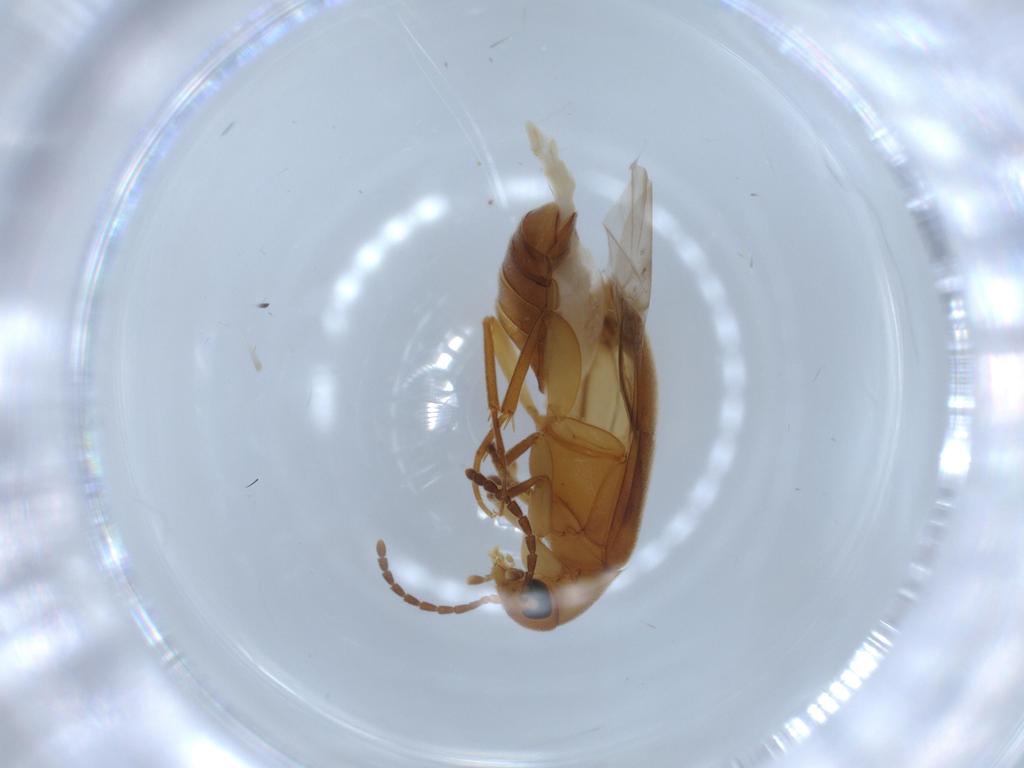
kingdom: Animalia
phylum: Arthropoda
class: Insecta
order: Coleoptera
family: Scraptiidae
